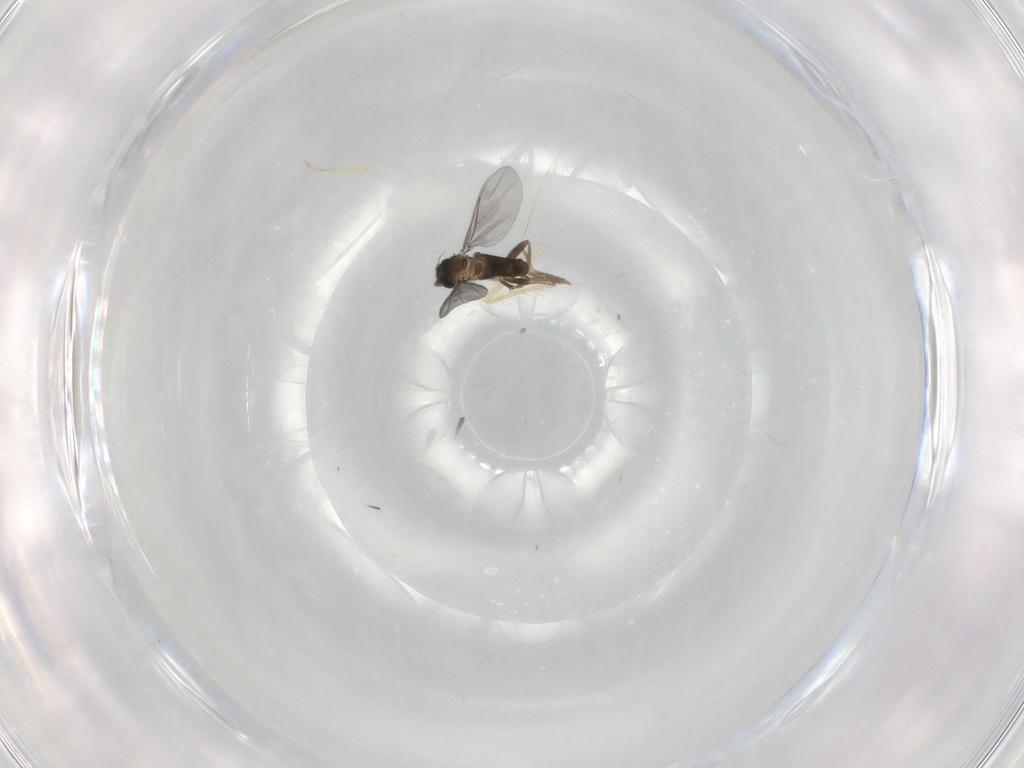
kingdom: Animalia
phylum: Arthropoda
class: Insecta
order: Diptera
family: Chironomidae
